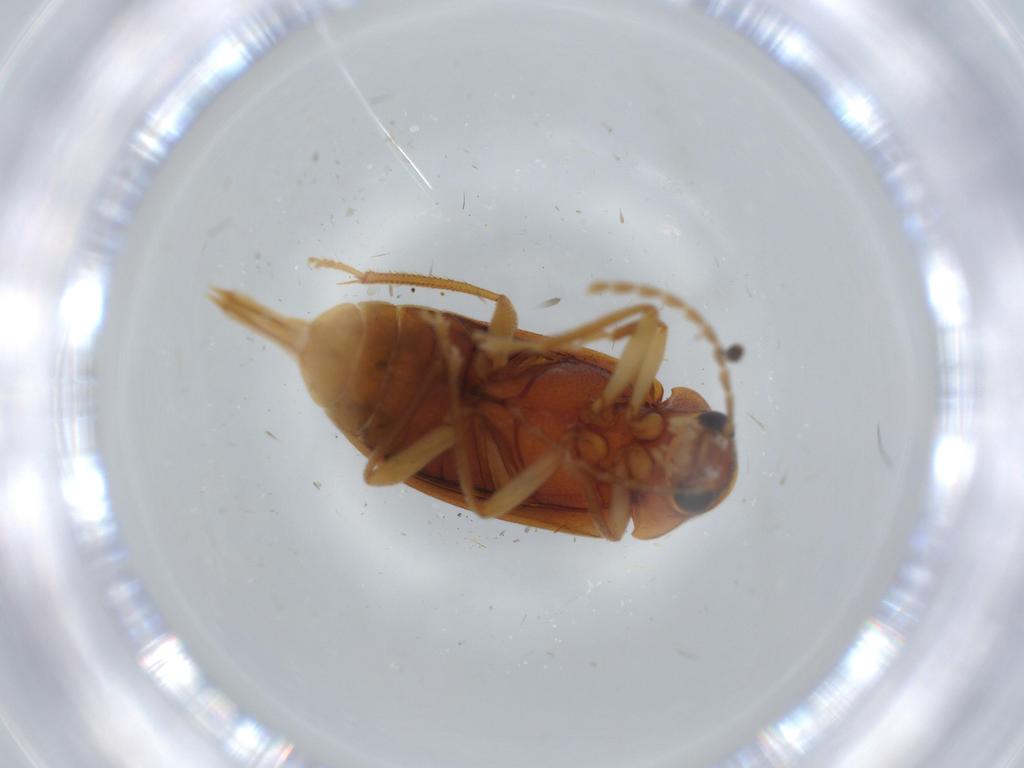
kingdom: Animalia
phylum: Arthropoda
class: Insecta
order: Coleoptera
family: Ptilodactylidae
